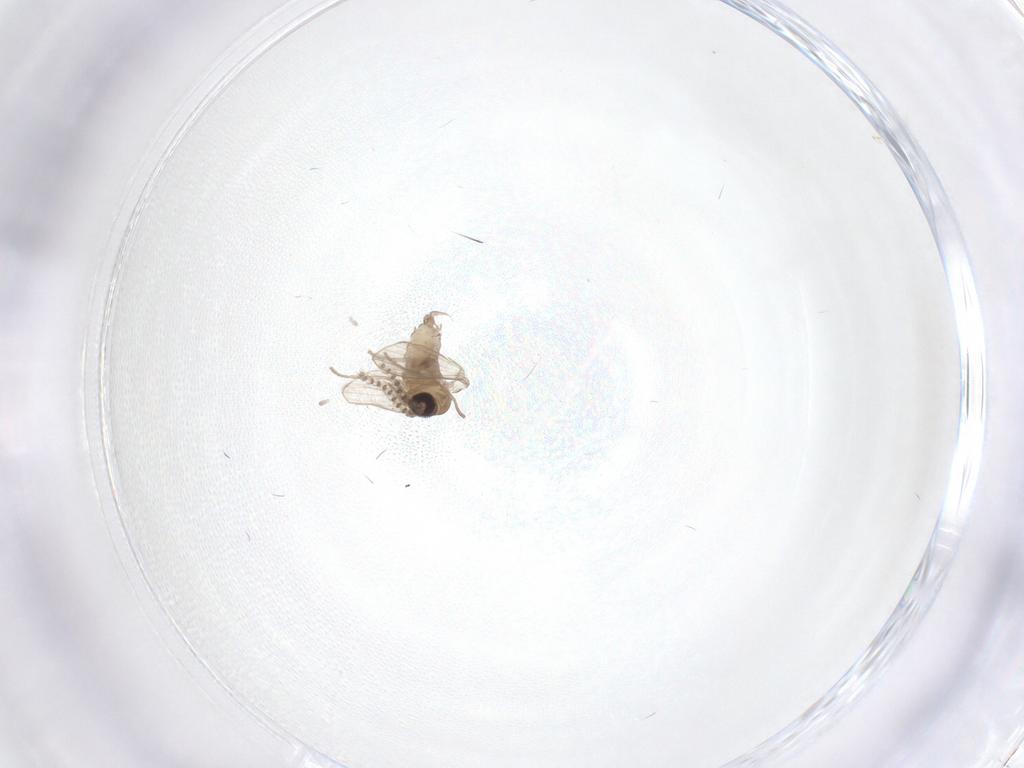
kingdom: Animalia
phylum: Arthropoda
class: Insecta
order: Diptera
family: Psychodidae
